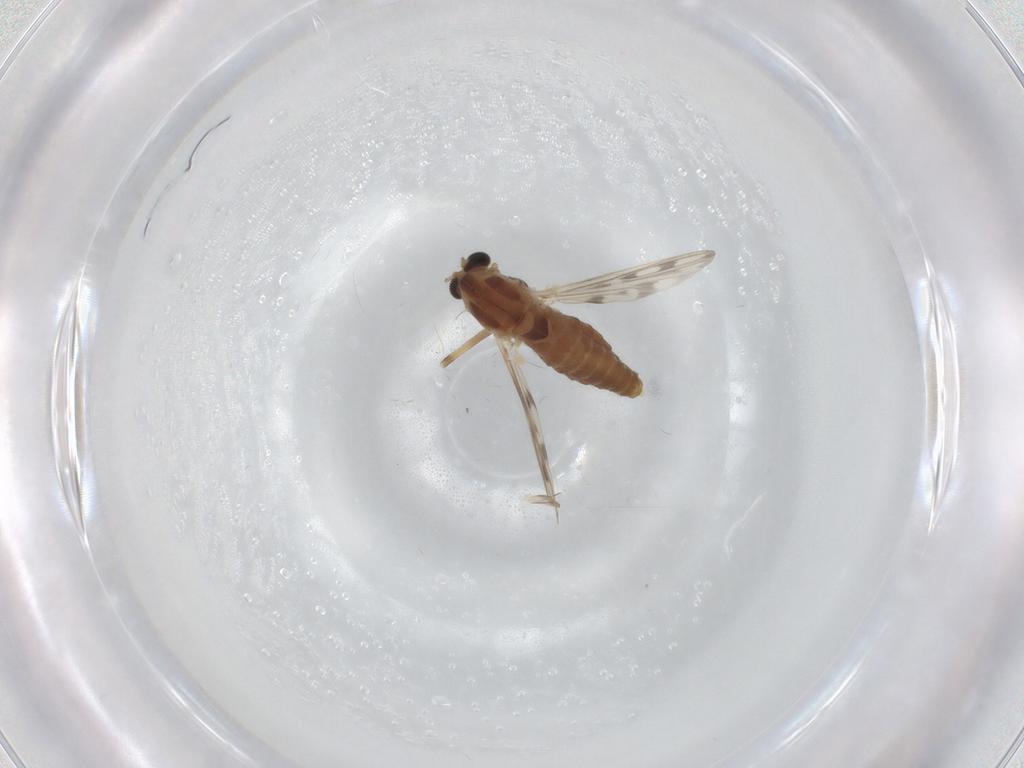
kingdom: Animalia
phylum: Arthropoda
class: Insecta
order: Diptera
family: Chironomidae
